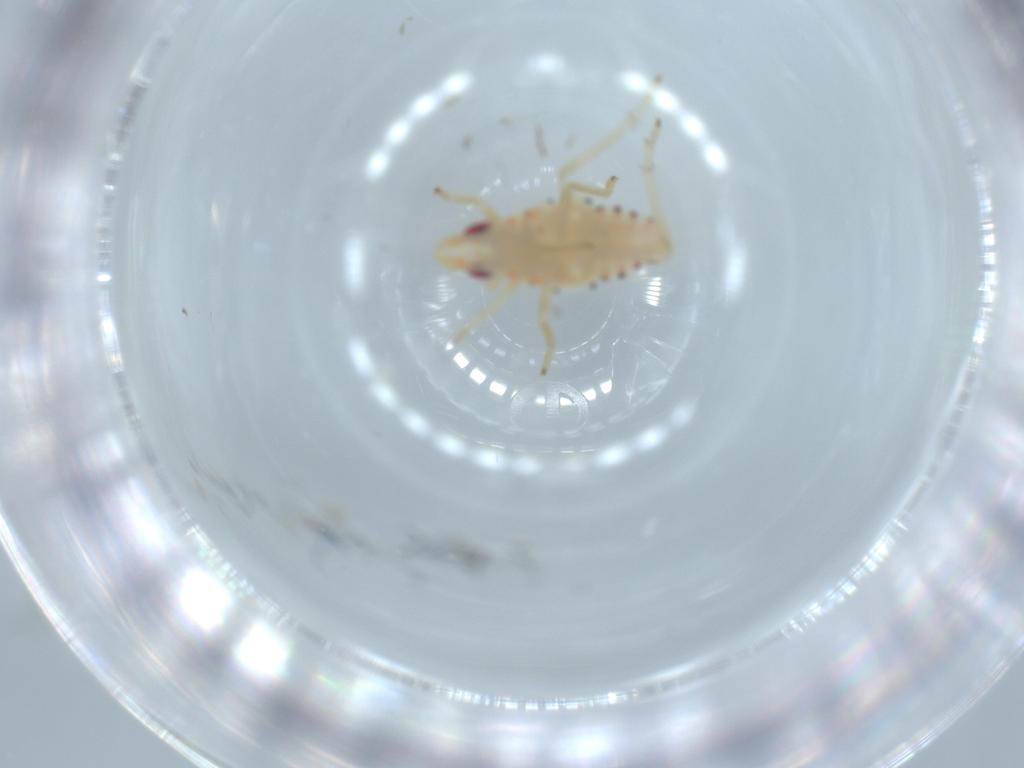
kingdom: Animalia
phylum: Arthropoda
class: Insecta
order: Hemiptera
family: Tropiduchidae
